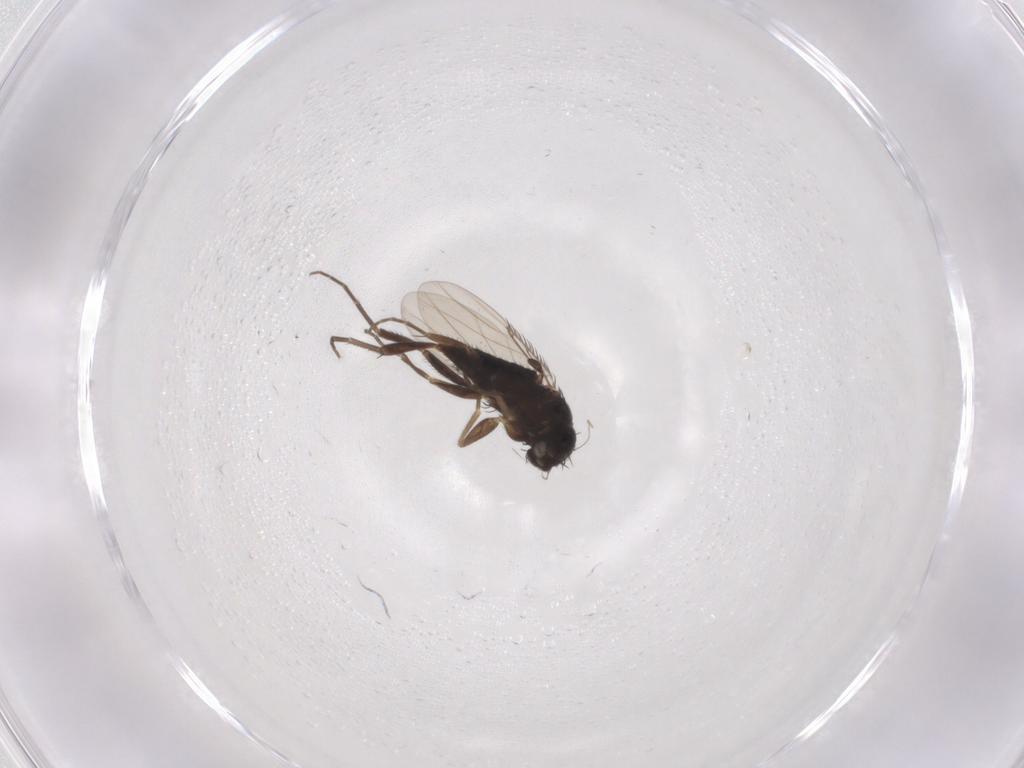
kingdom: Animalia
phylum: Arthropoda
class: Insecta
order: Diptera
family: Phoridae
